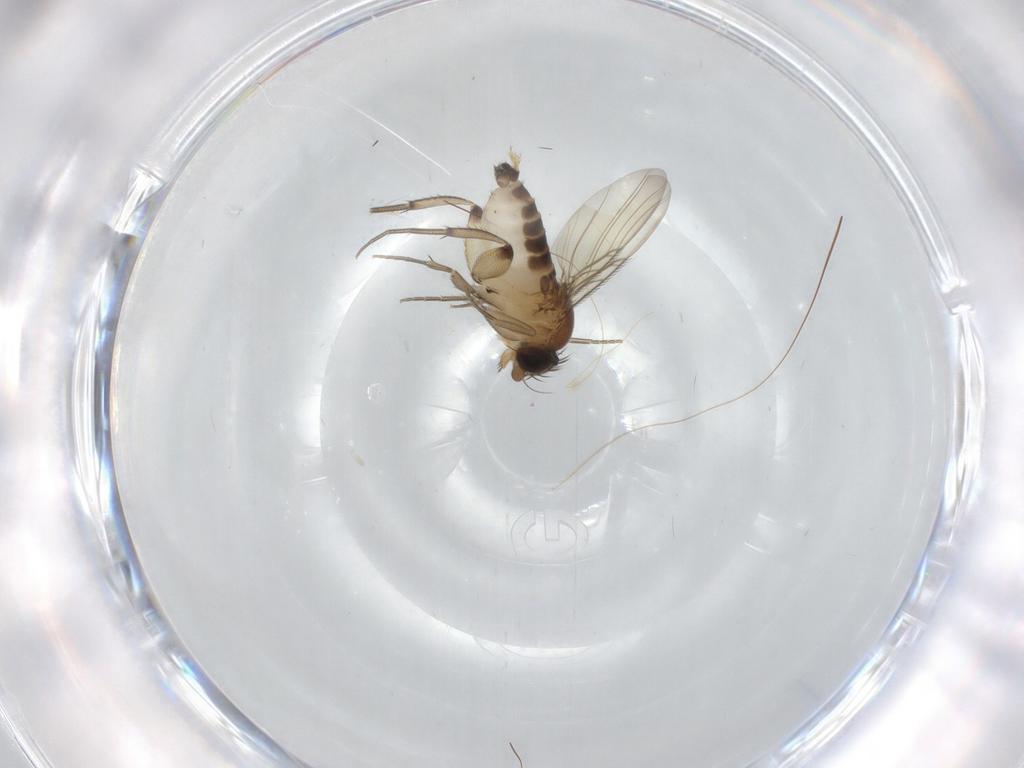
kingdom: Animalia
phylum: Arthropoda
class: Insecta
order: Diptera
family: Phoridae
